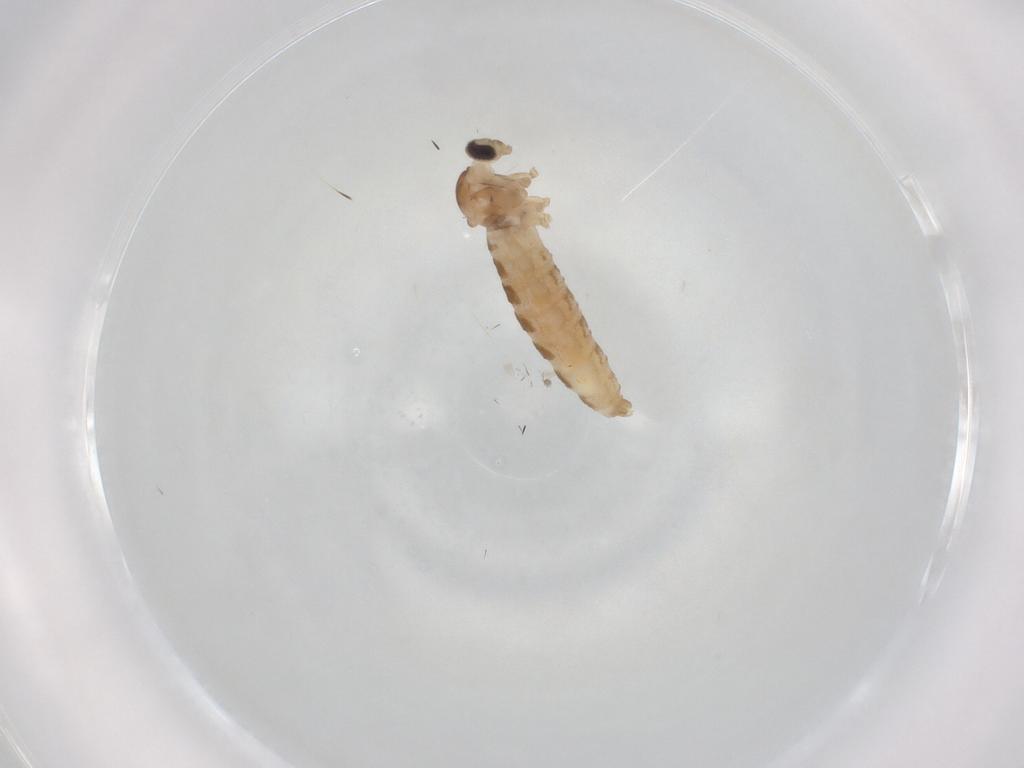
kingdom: Animalia
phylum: Arthropoda
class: Insecta
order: Diptera
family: Cecidomyiidae
